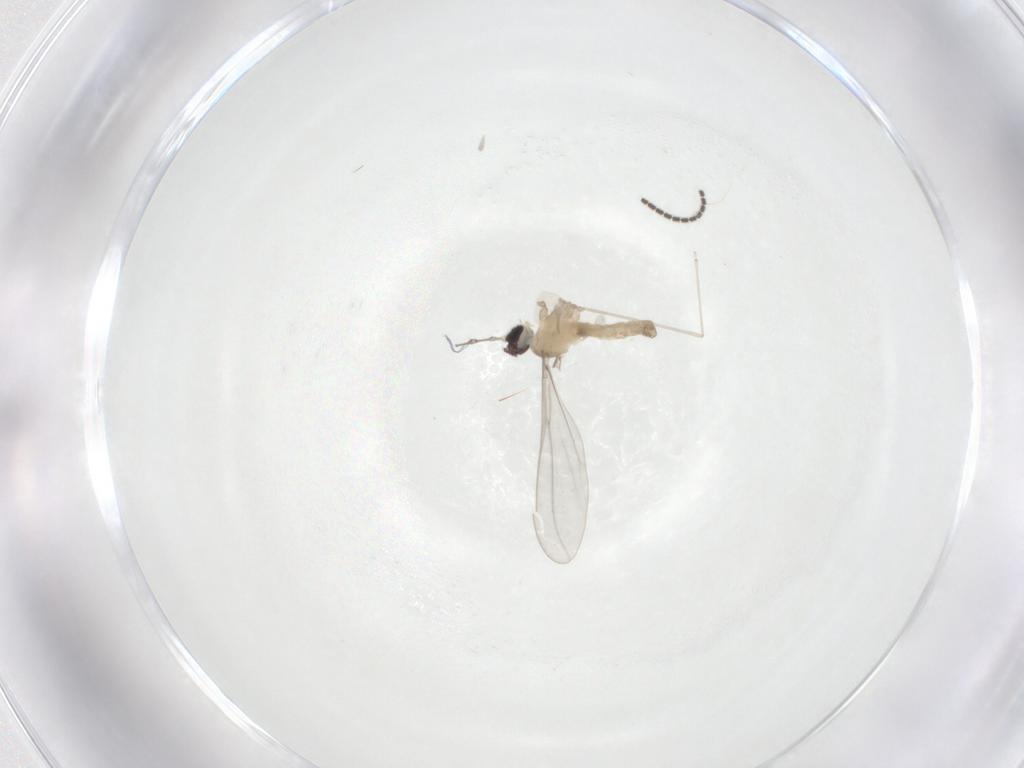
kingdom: Animalia
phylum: Arthropoda
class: Insecta
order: Diptera
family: Cecidomyiidae
